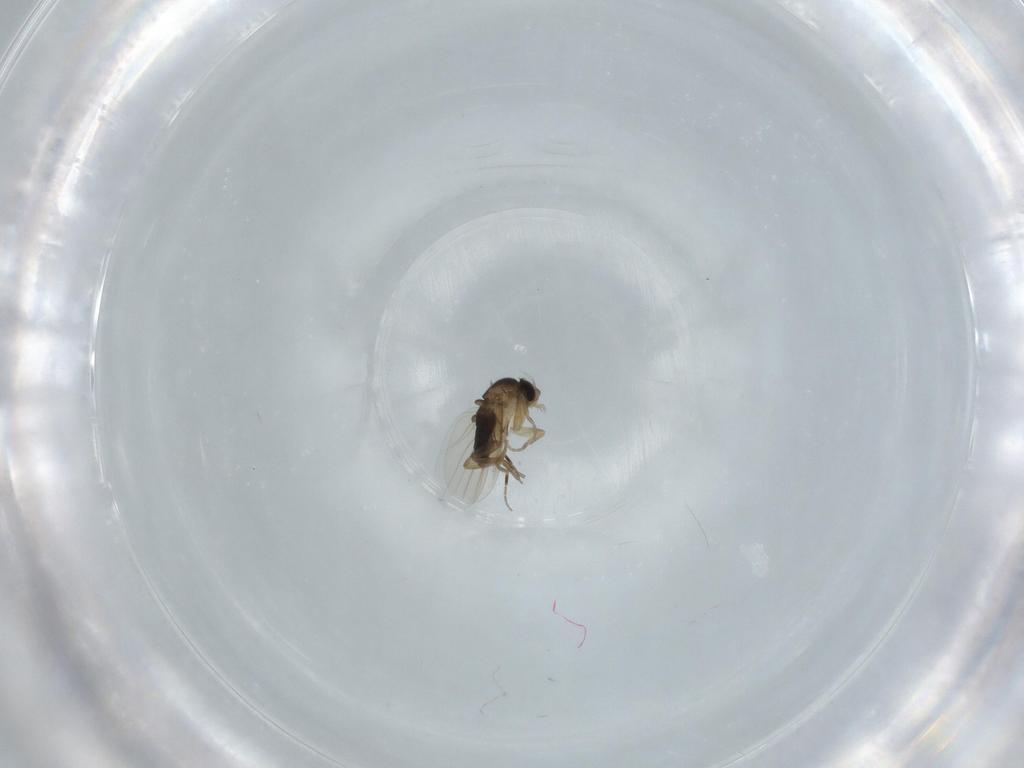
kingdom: Animalia
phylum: Arthropoda
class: Insecta
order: Diptera
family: Phoridae
